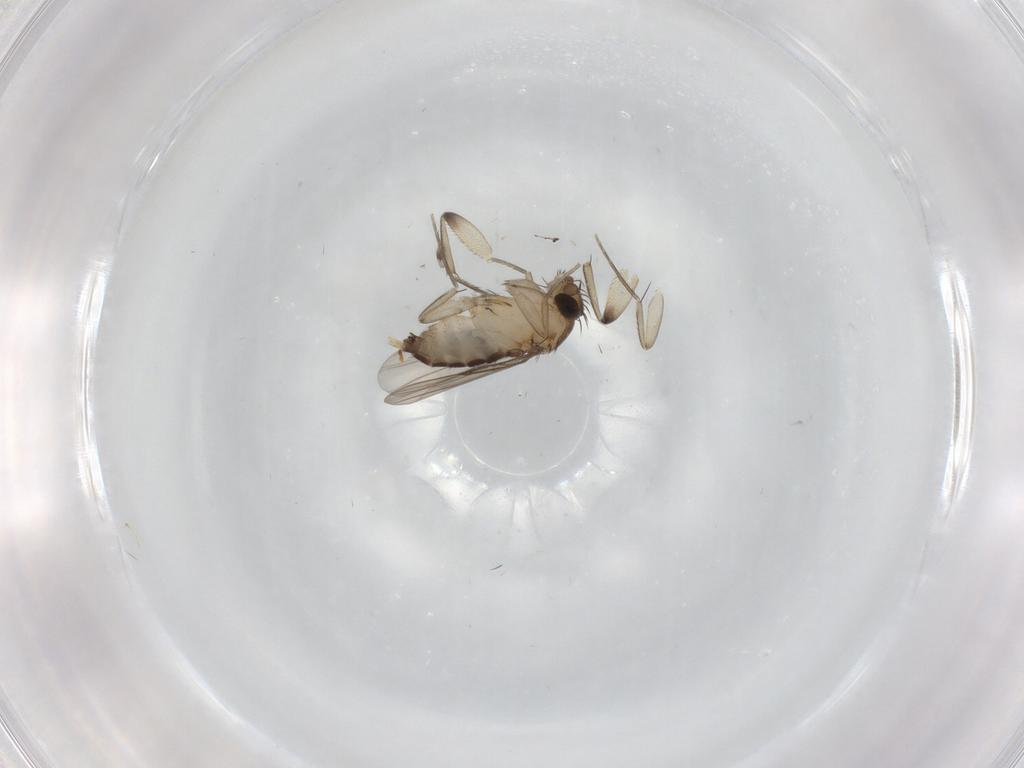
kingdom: Animalia
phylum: Arthropoda
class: Insecta
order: Diptera
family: Phoridae
